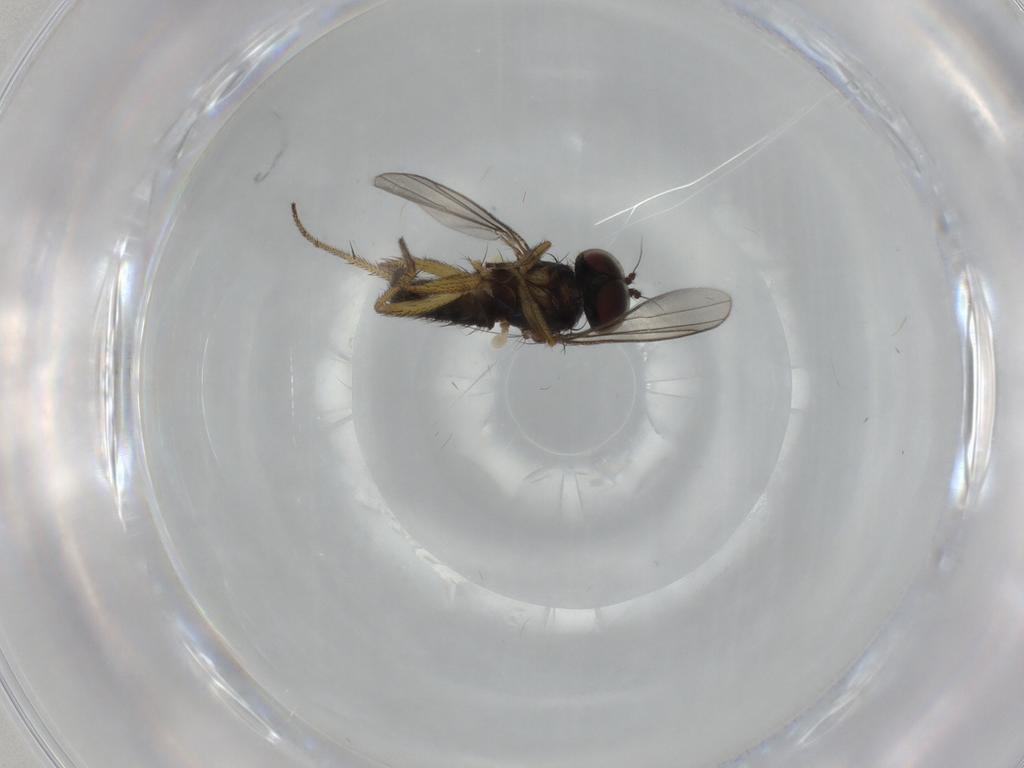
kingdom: Animalia
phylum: Arthropoda
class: Insecta
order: Diptera
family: Dolichopodidae
